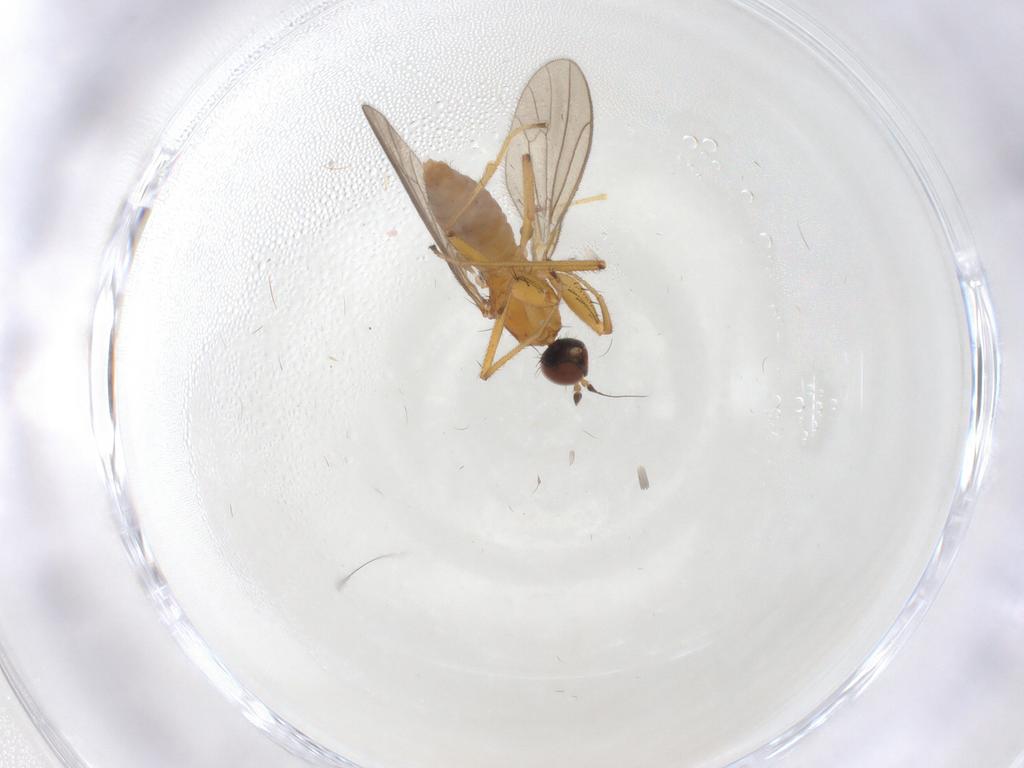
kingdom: Animalia
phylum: Arthropoda
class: Insecta
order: Diptera
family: Empididae
